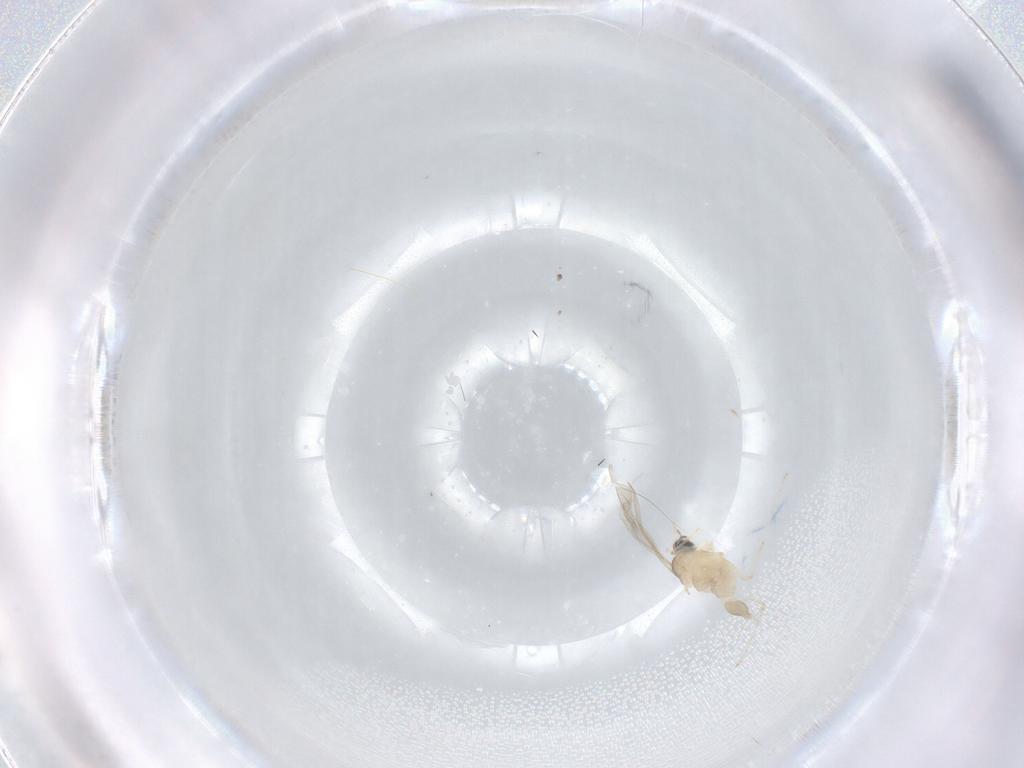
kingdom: Animalia
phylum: Arthropoda
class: Insecta
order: Diptera
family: Cecidomyiidae
